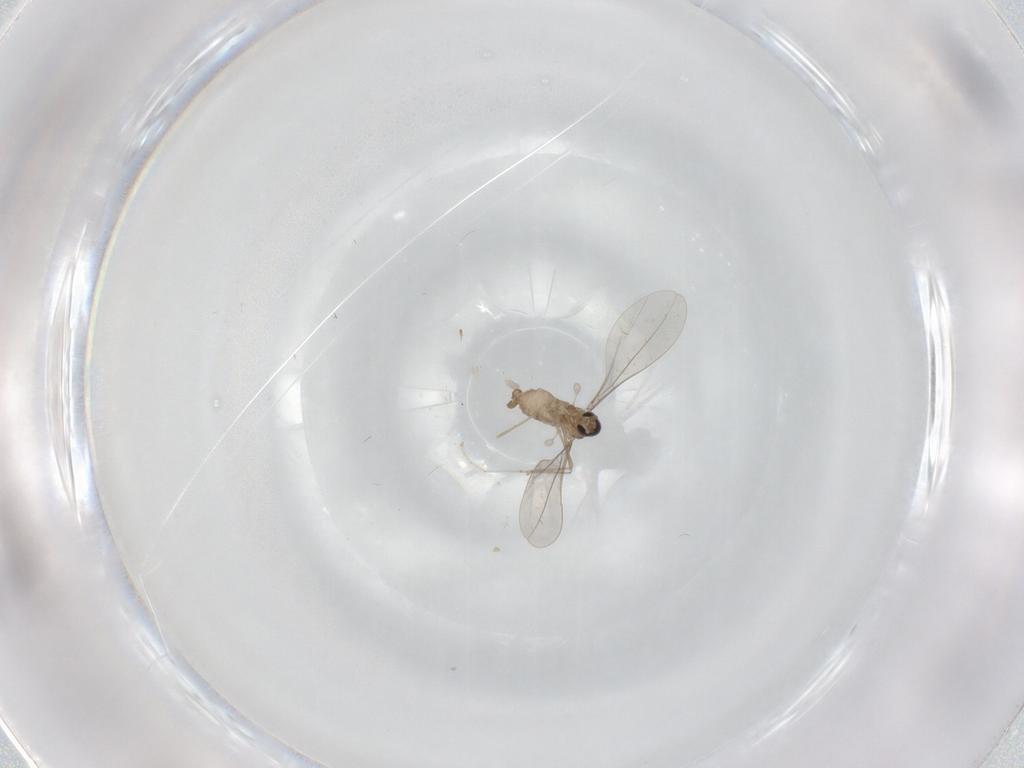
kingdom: Animalia
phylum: Arthropoda
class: Insecta
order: Diptera
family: Cecidomyiidae
